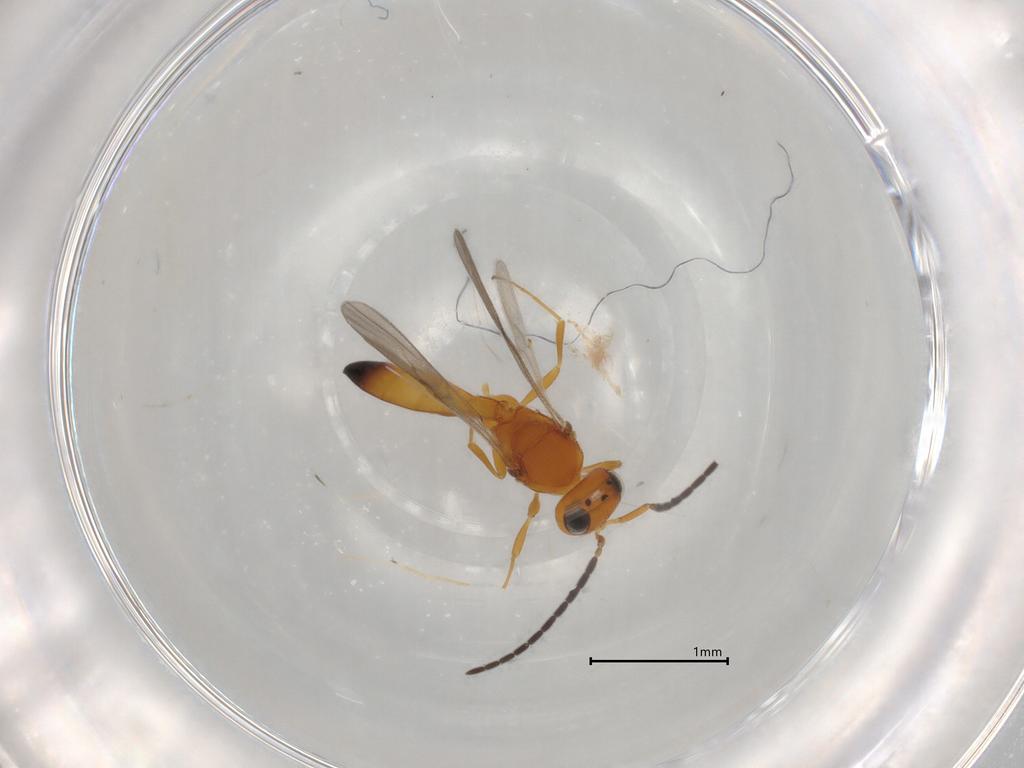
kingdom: Animalia
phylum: Arthropoda
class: Insecta
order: Hymenoptera
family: Scelionidae
